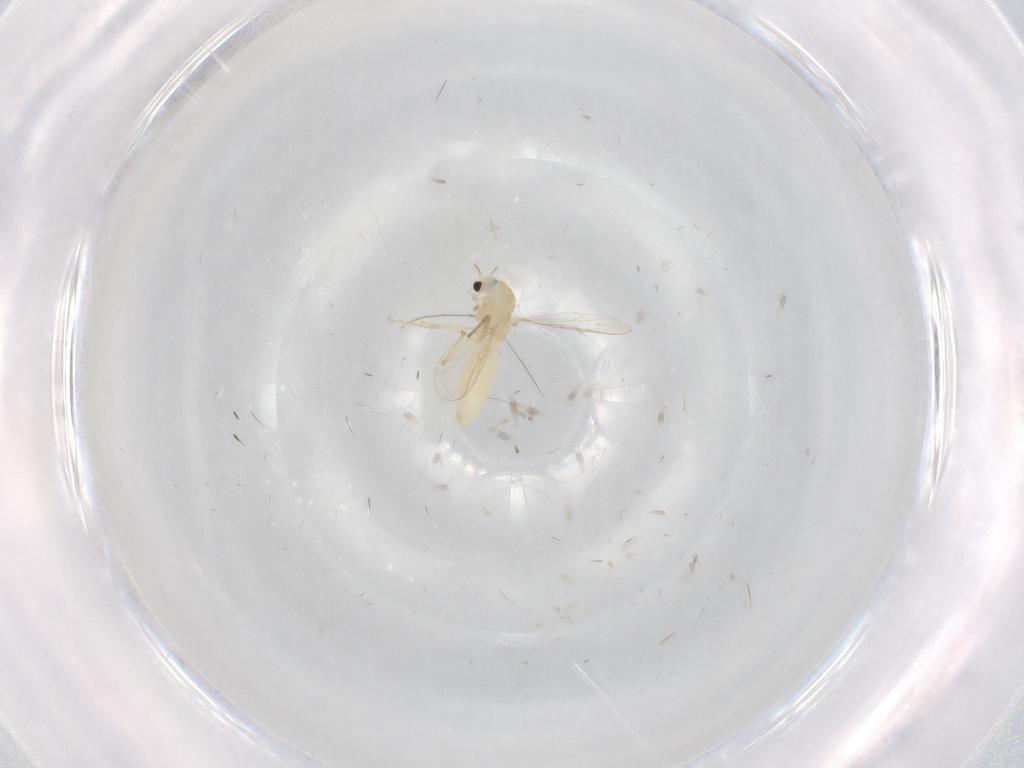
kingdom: Animalia
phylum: Arthropoda
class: Insecta
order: Diptera
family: Chironomidae
